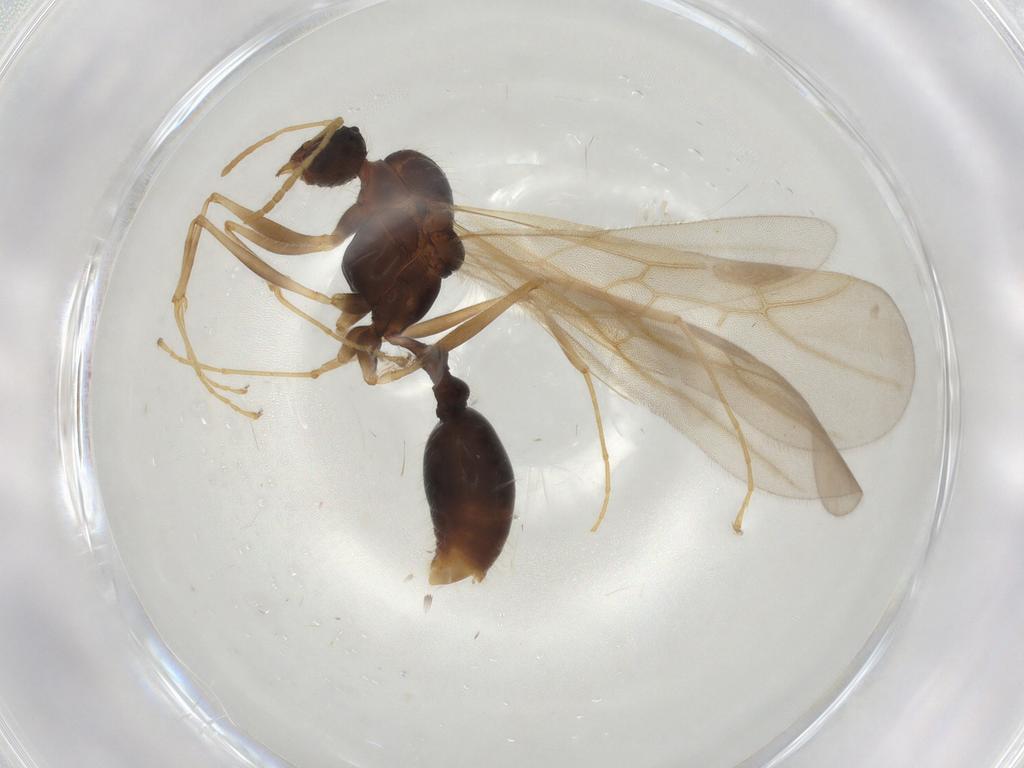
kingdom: Animalia
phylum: Arthropoda
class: Insecta
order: Hymenoptera
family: Formicidae
